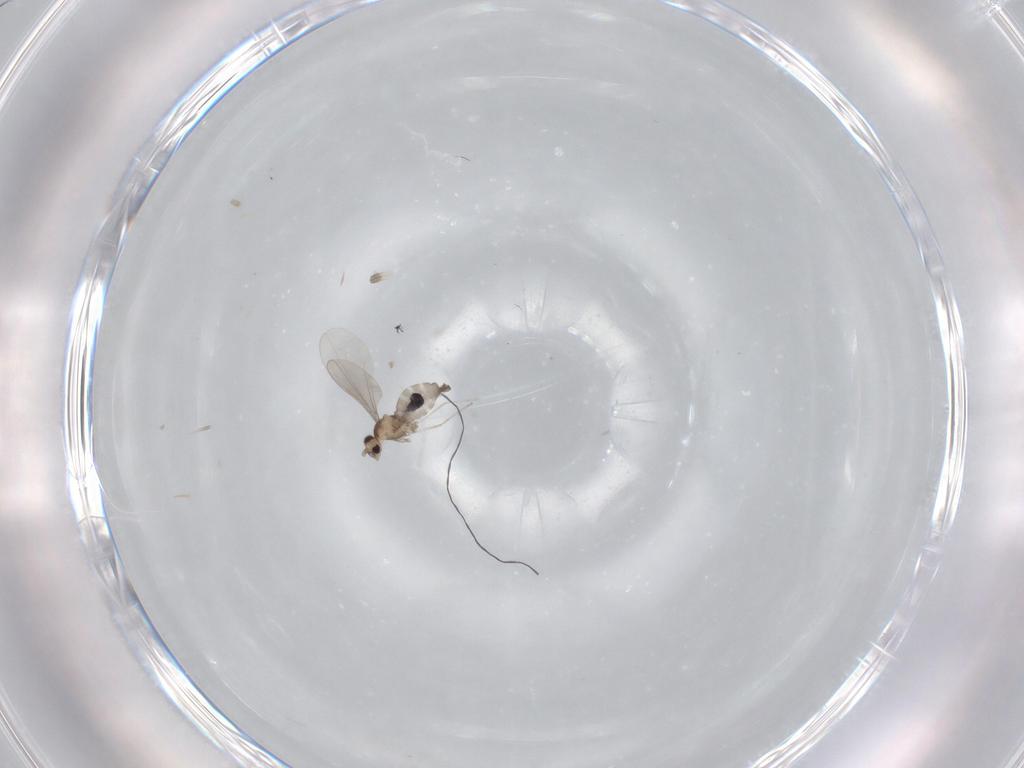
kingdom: Animalia
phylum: Arthropoda
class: Insecta
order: Diptera
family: Cecidomyiidae
